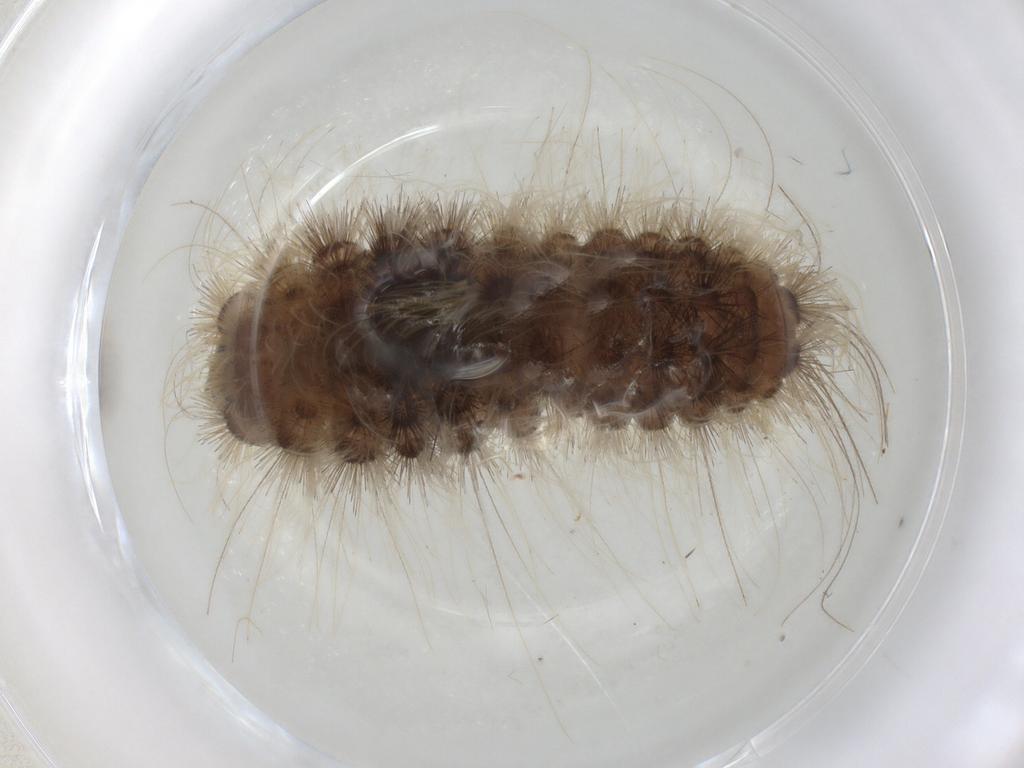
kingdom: Animalia
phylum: Arthropoda
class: Insecta
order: Lepidoptera
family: Erebidae
